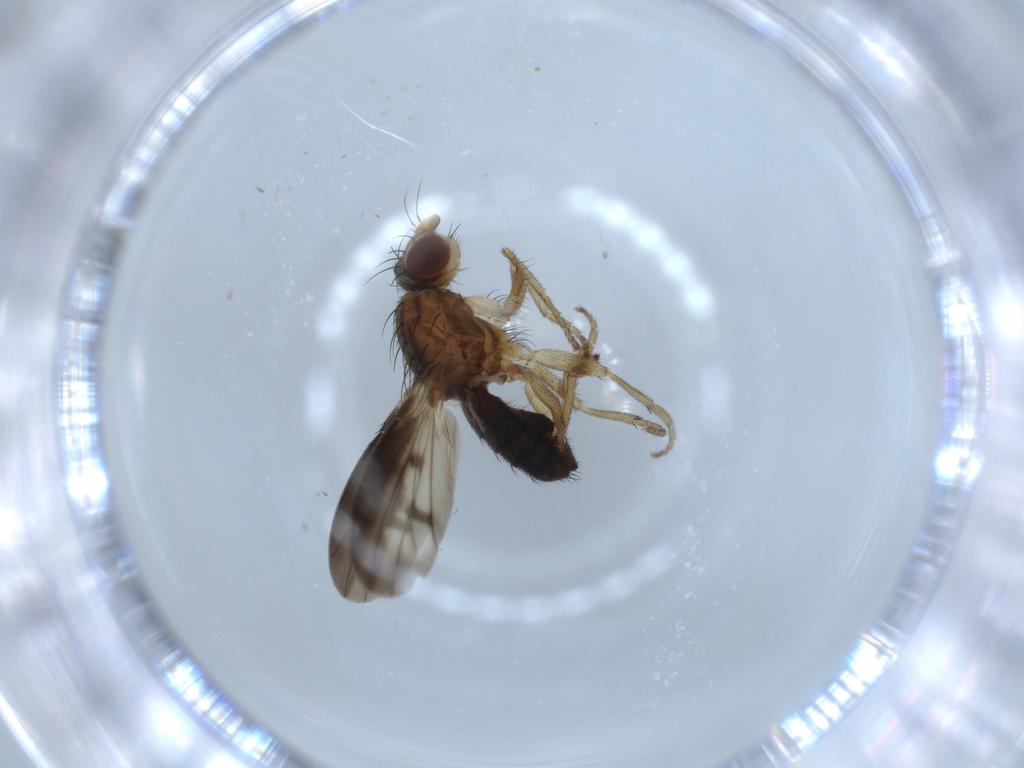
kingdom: Animalia
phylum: Arthropoda
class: Insecta
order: Diptera
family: Heleomyzidae
